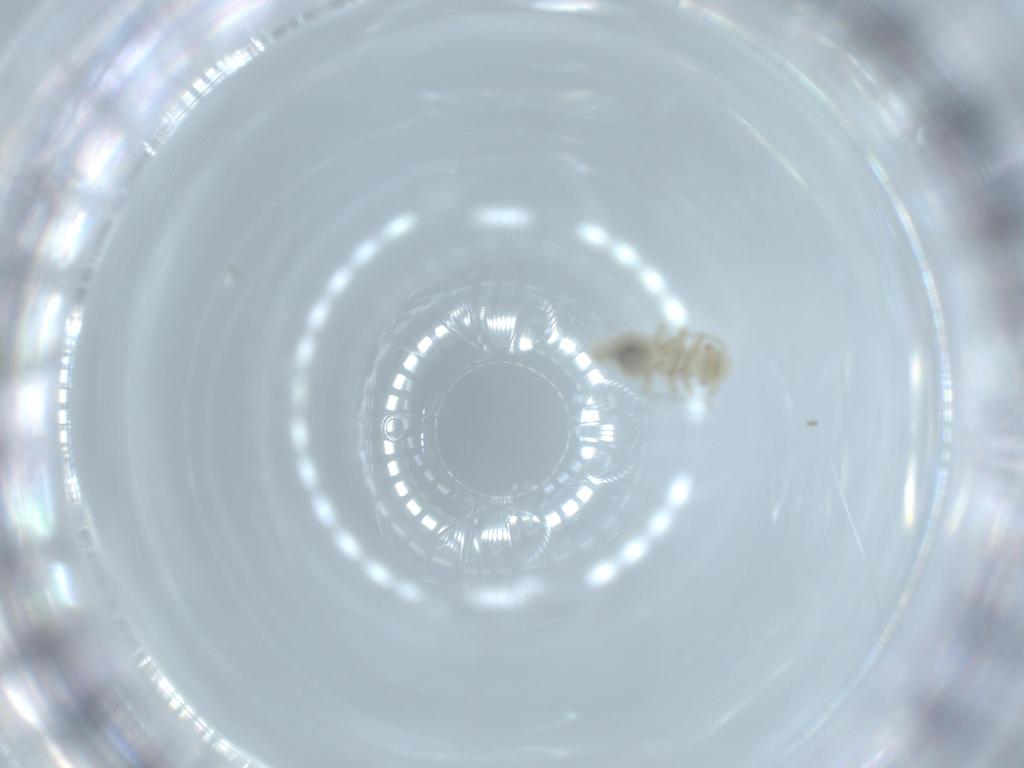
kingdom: Animalia
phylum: Arthropoda
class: Insecta
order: Psocodea
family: Caeciliusidae
